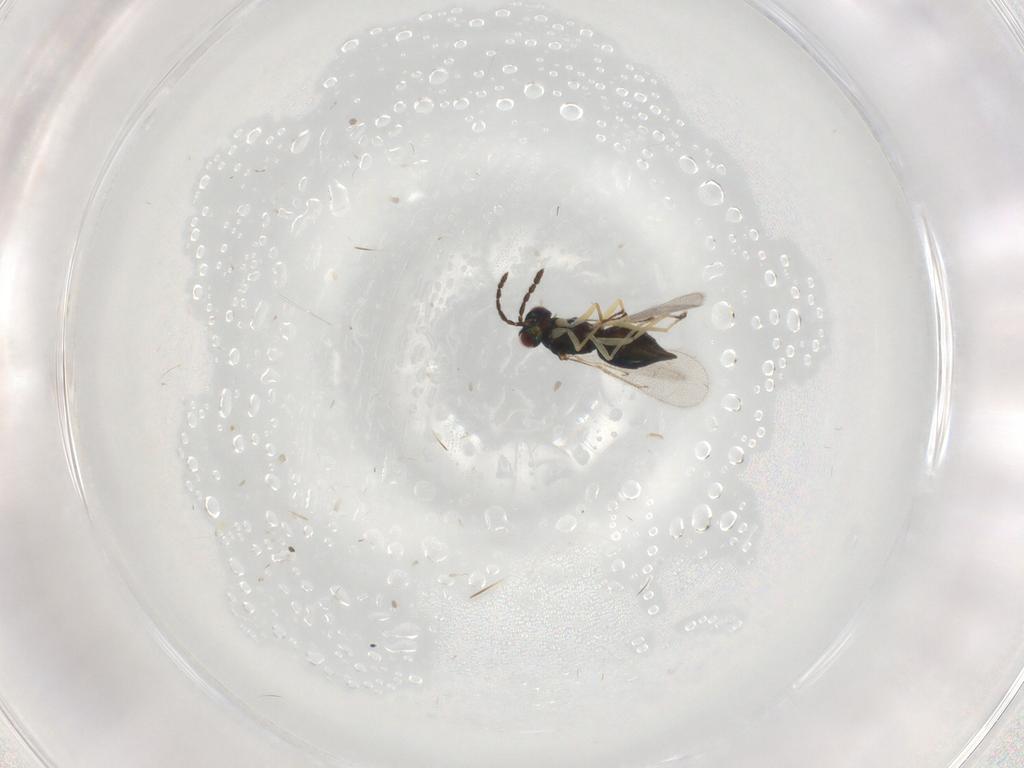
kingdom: Animalia
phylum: Arthropoda
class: Insecta
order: Hymenoptera
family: Eulophidae
